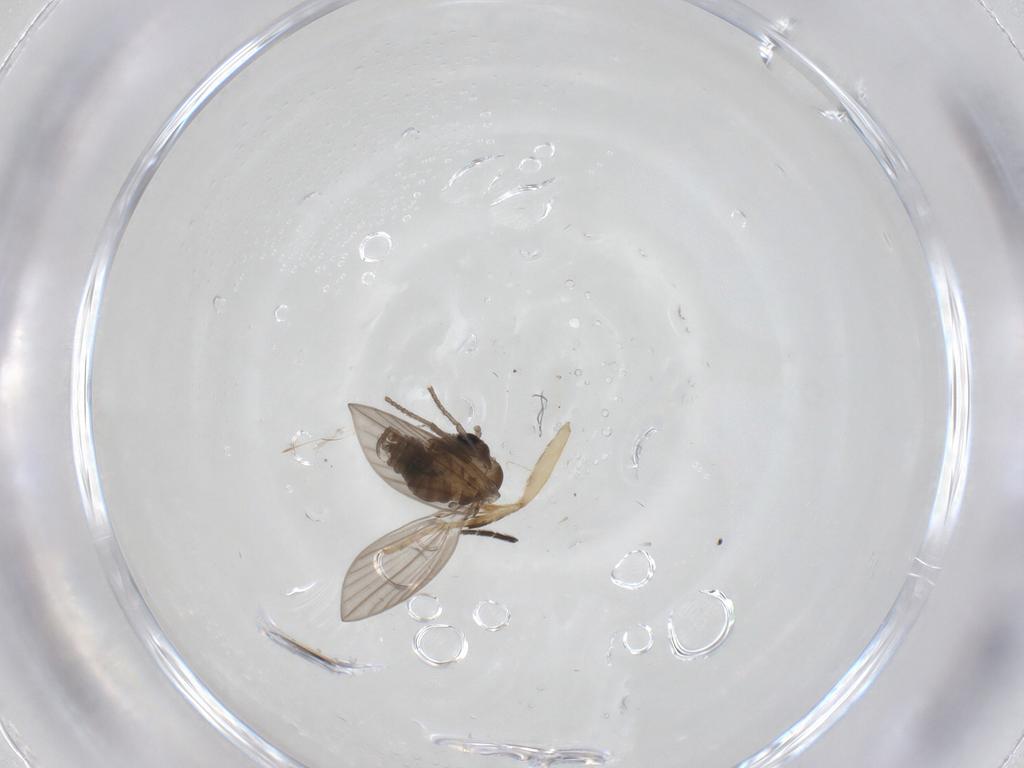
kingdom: Animalia
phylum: Arthropoda
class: Insecta
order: Diptera
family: Psychodidae
